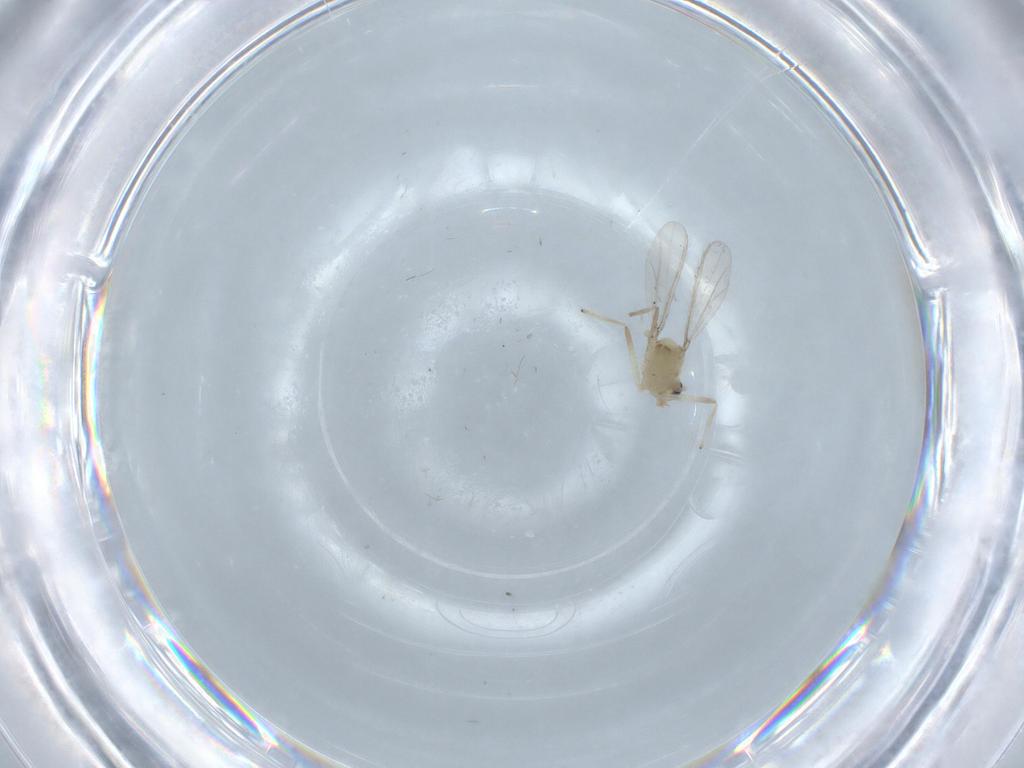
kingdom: Animalia
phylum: Arthropoda
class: Insecta
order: Diptera
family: Chironomidae
